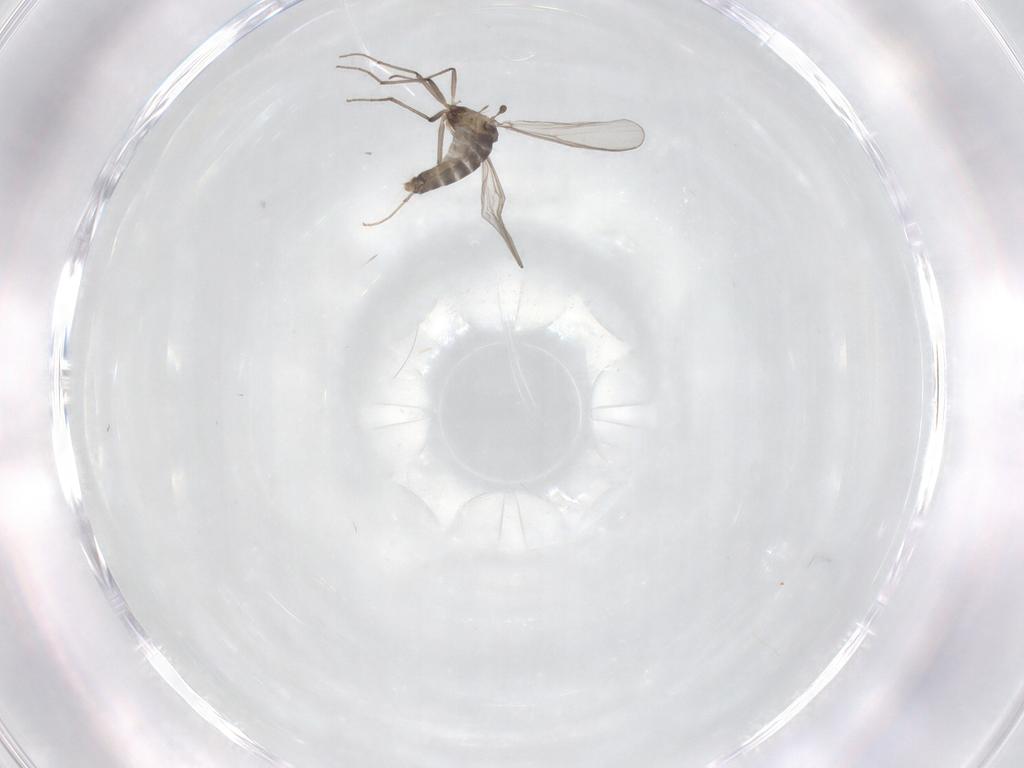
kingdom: Animalia
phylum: Arthropoda
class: Insecta
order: Diptera
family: Chironomidae
